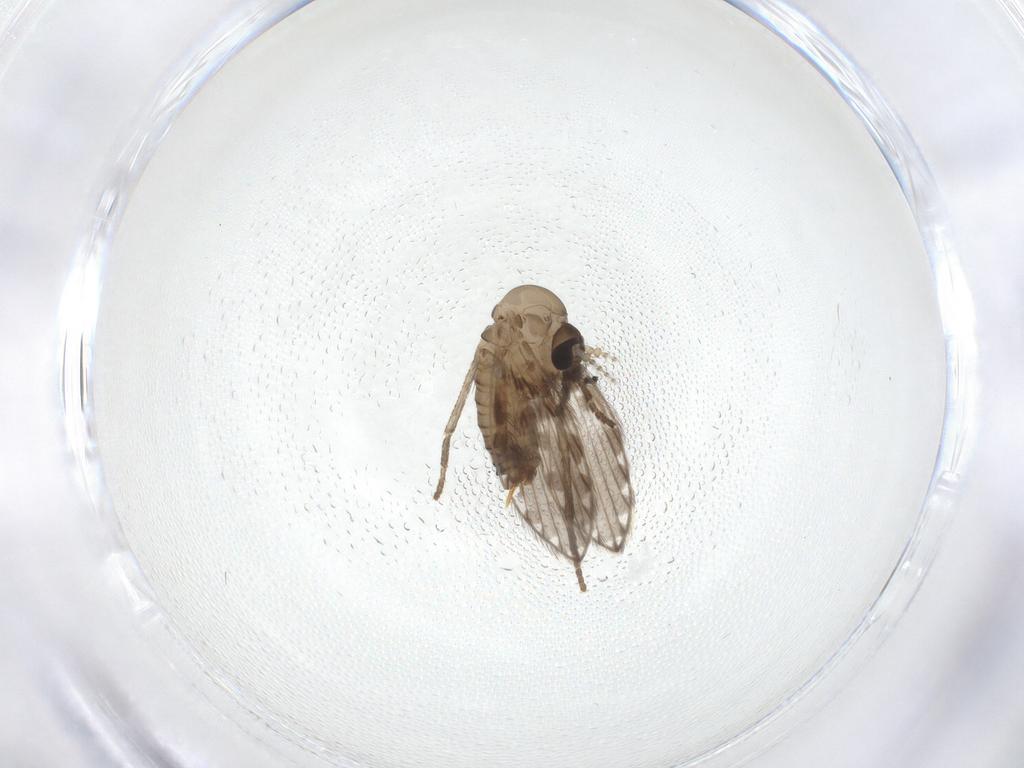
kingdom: Animalia
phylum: Arthropoda
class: Insecta
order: Diptera
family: Psychodidae
